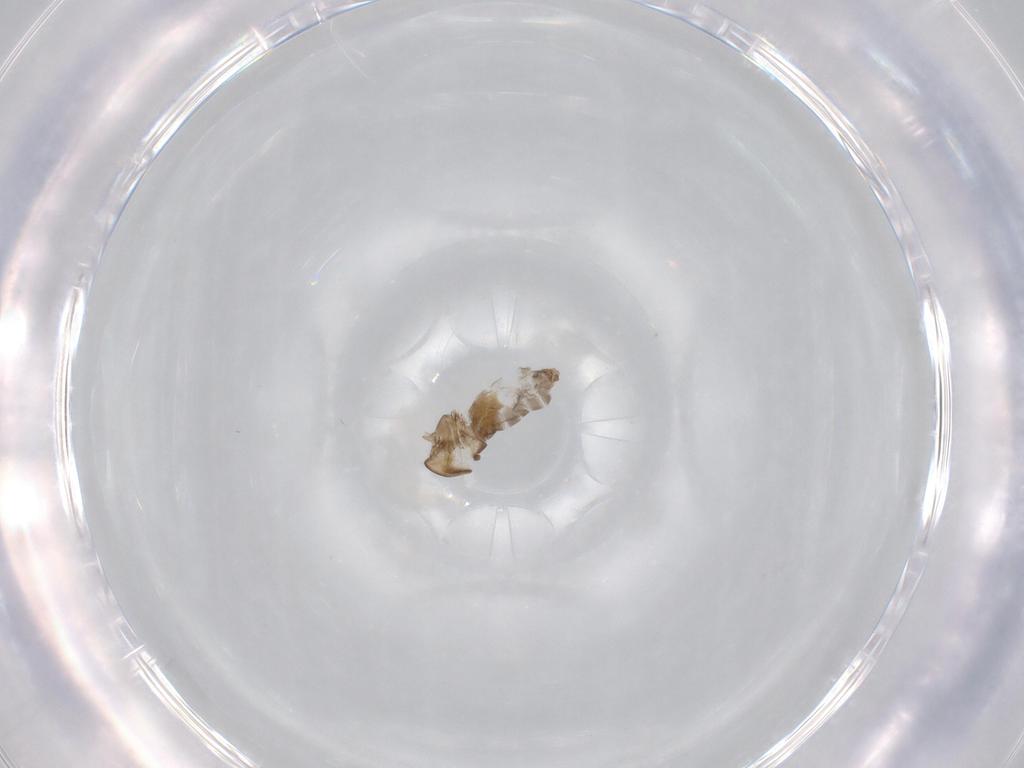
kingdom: Animalia
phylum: Arthropoda
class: Insecta
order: Diptera
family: Chironomidae
